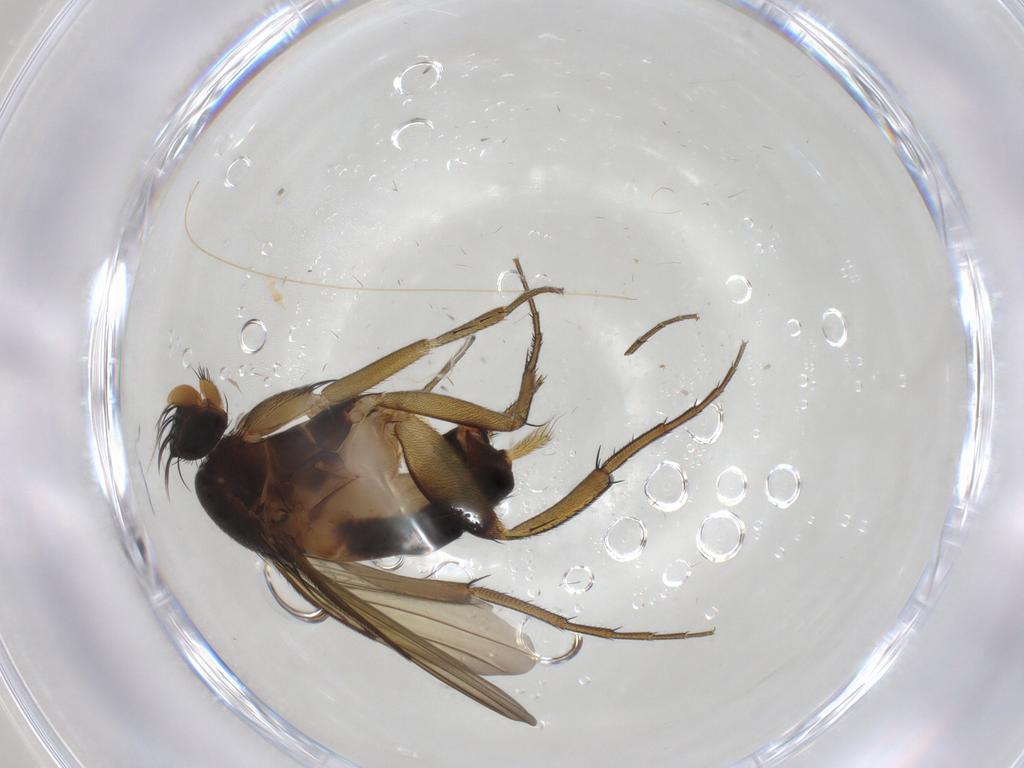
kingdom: Animalia
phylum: Arthropoda
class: Insecta
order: Diptera
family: Phoridae
